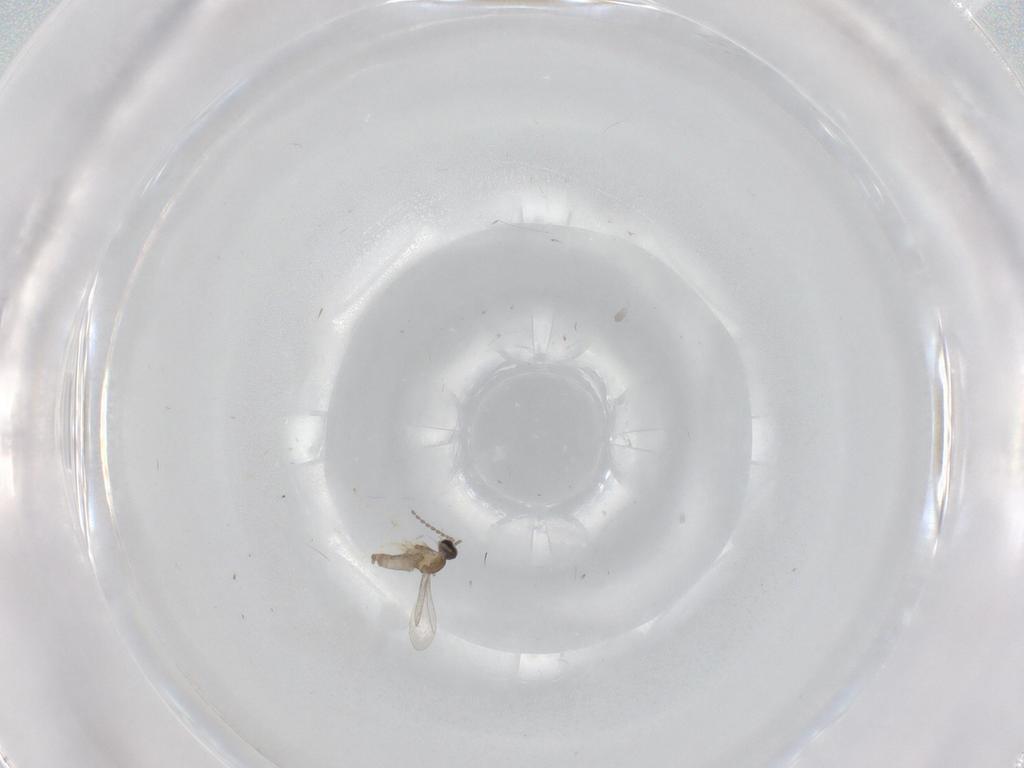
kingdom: Animalia
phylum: Arthropoda
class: Insecta
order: Diptera
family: Cecidomyiidae
